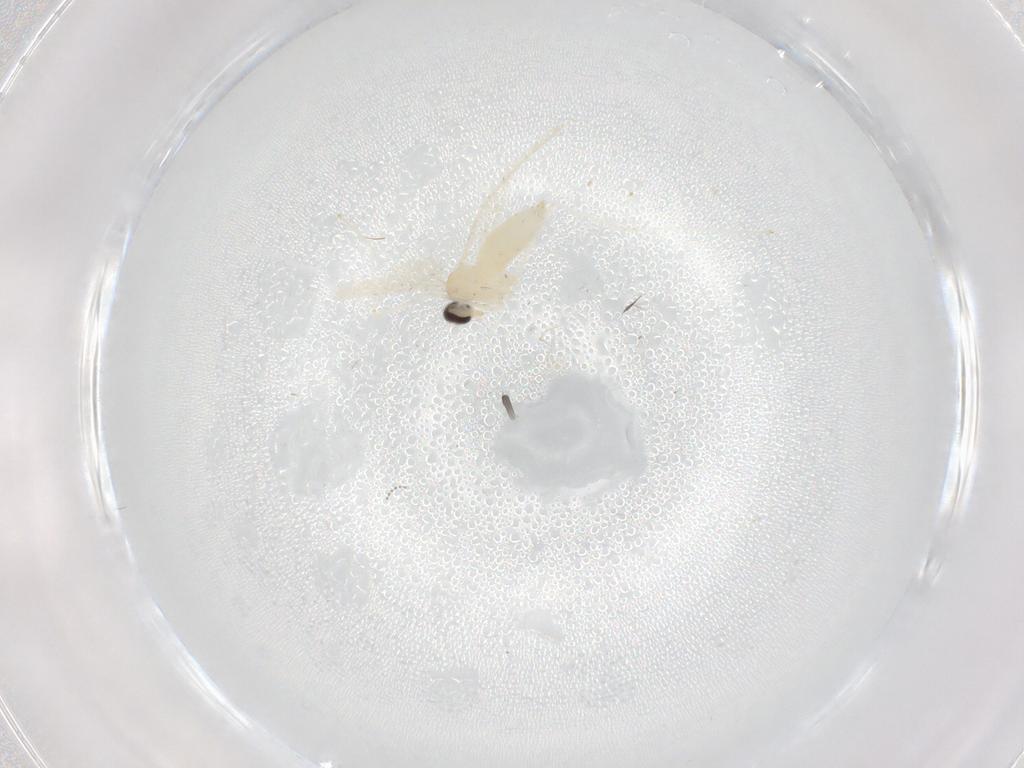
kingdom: Animalia
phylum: Arthropoda
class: Insecta
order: Diptera
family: Cecidomyiidae
